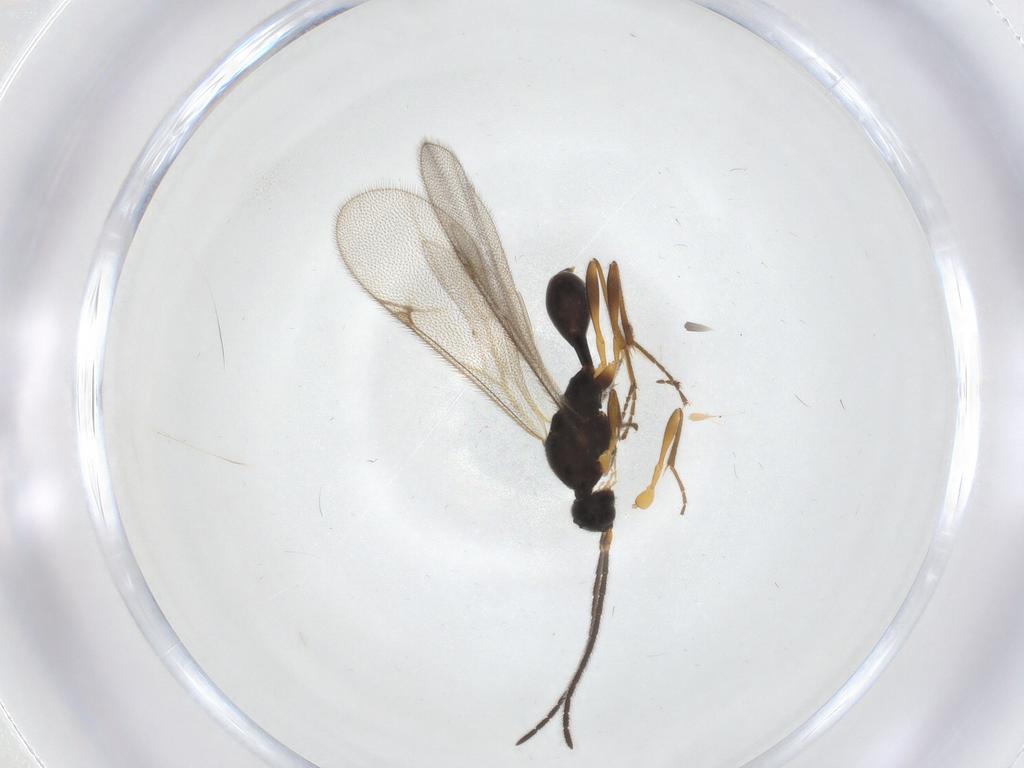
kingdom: Animalia
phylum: Arthropoda
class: Insecta
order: Hymenoptera
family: Proctotrupidae
